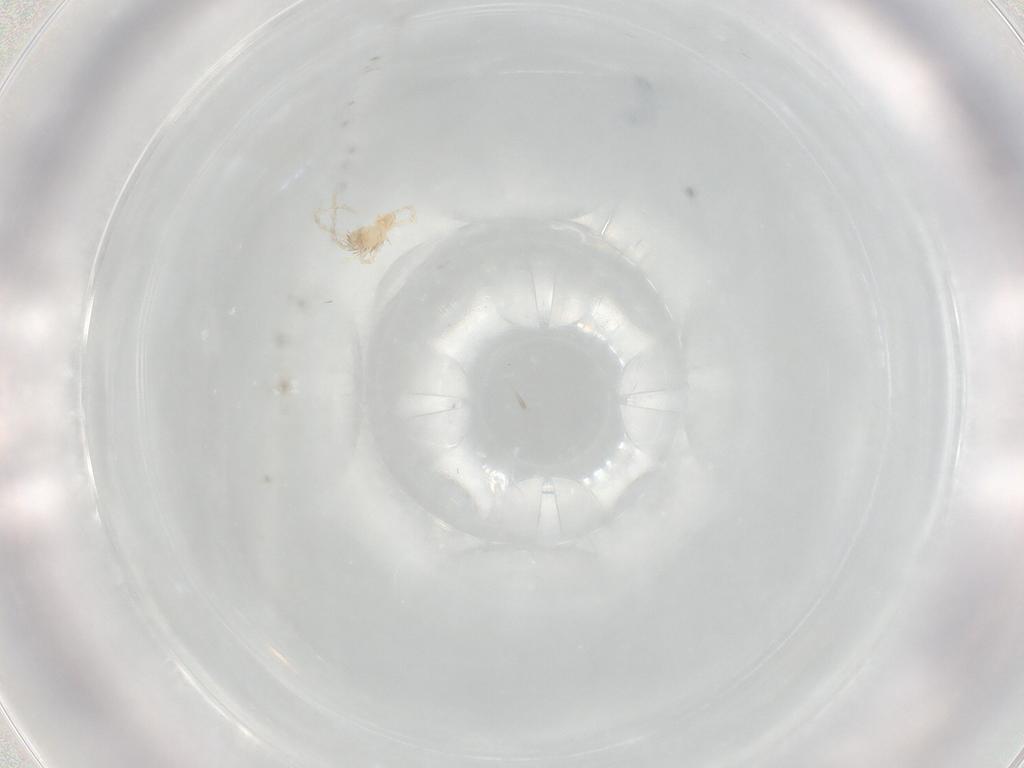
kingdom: Animalia
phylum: Arthropoda
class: Arachnida
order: Trombidiformes
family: Erythraeidae
